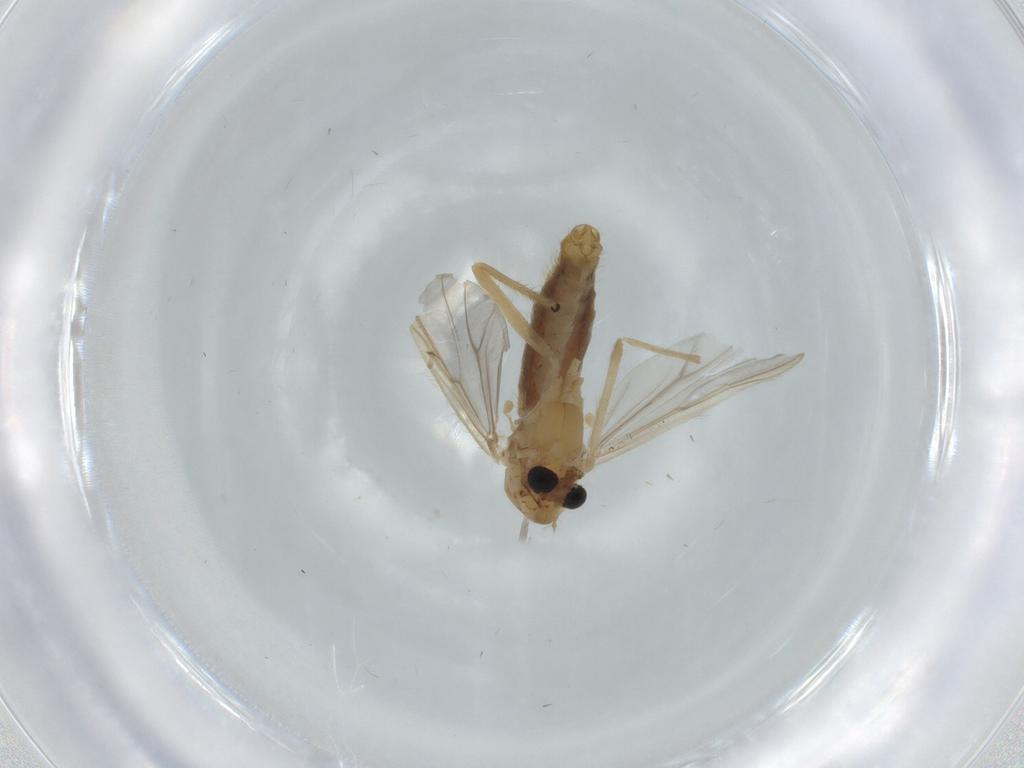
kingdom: Animalia
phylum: Arthropoda
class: Insecta
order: Diptera
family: Chironomidae
